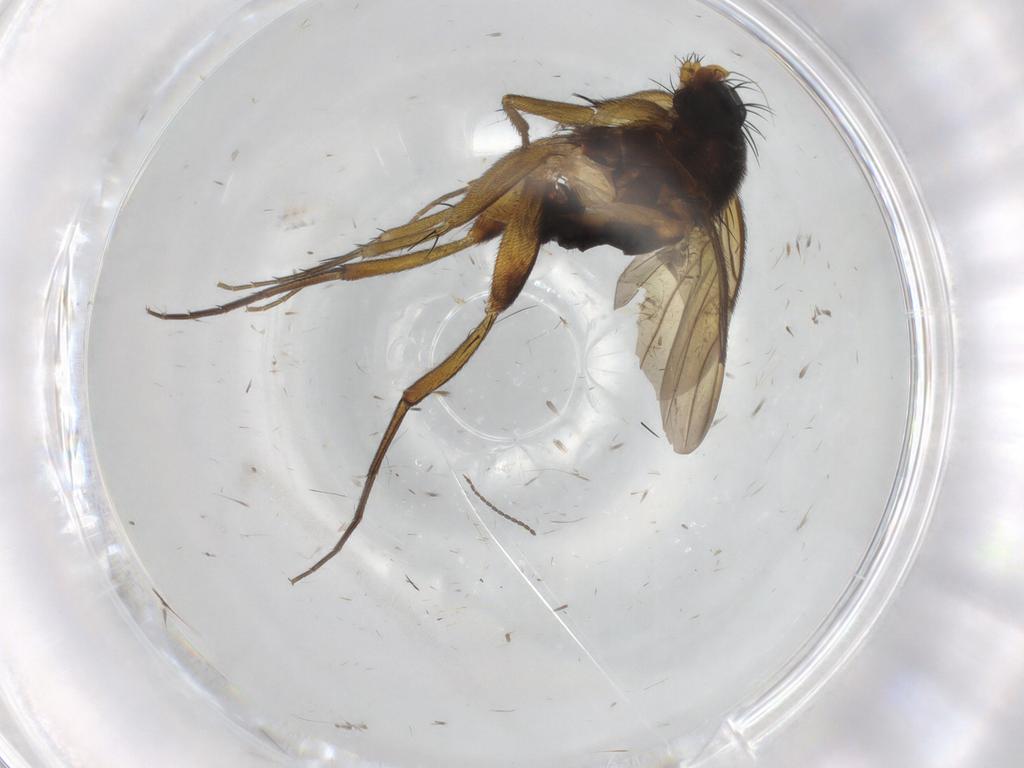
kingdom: Animalia
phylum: Arthropoda
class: Insecta
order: Diptera
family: Phoridae
